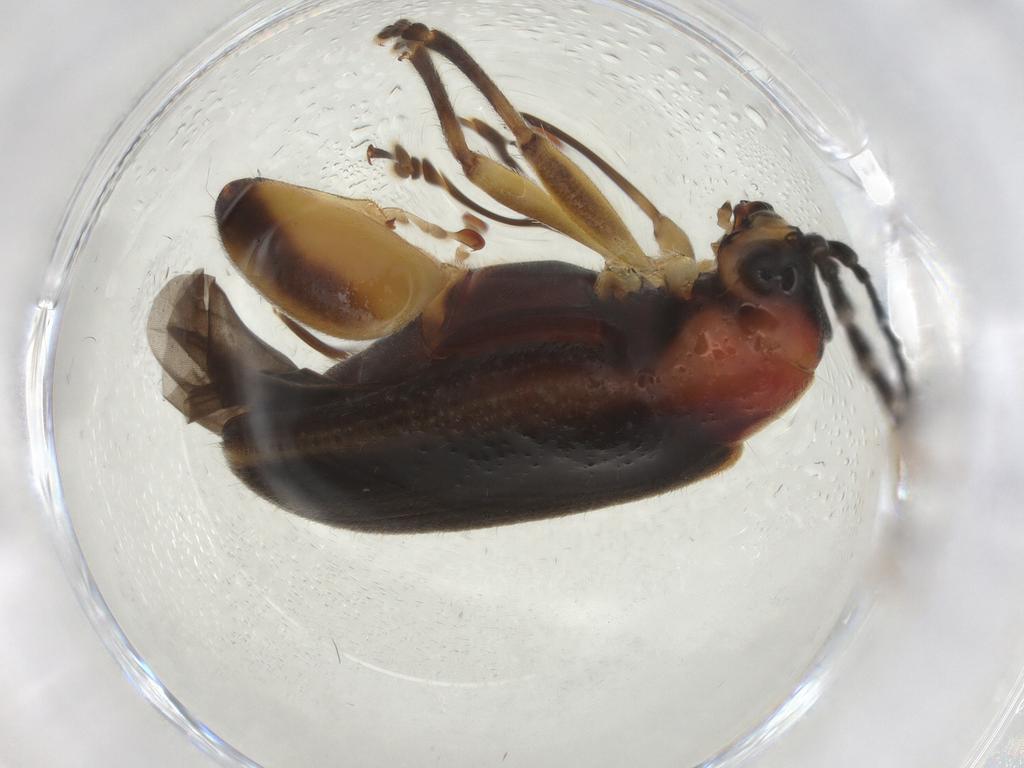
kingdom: Animalia
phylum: Arthropoda
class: Insecta
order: Coleoptera
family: Chrysomelidae
